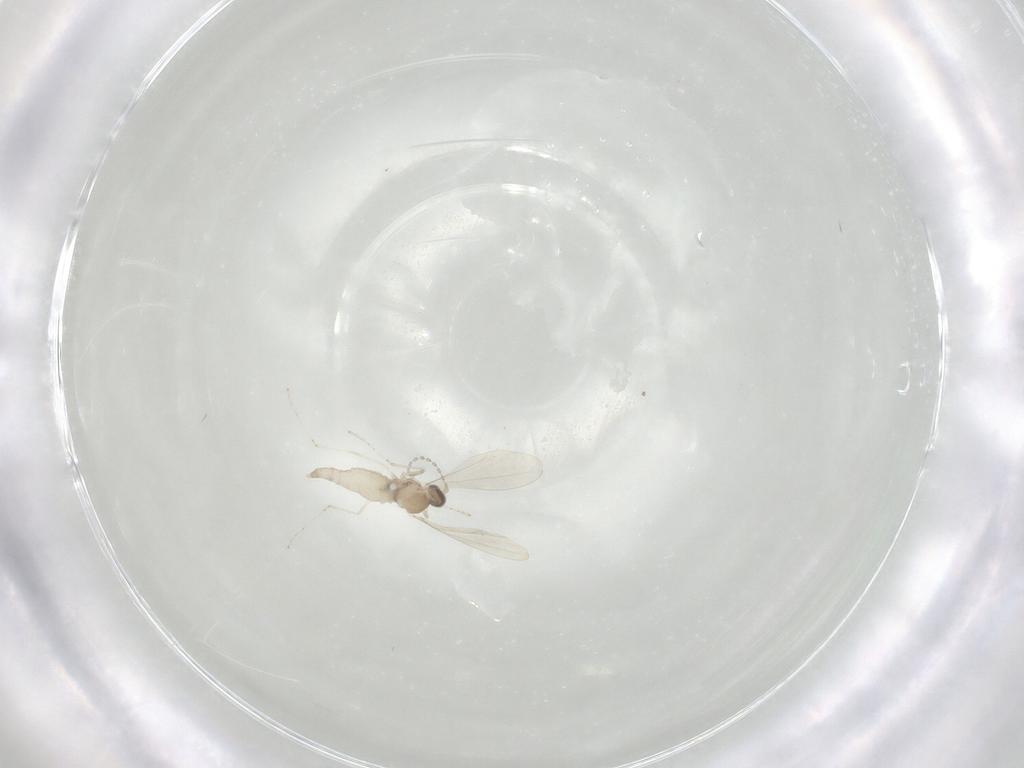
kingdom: Animalia
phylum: Arthropoda
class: Insecta
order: Diptera
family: Cecidomyiidae
